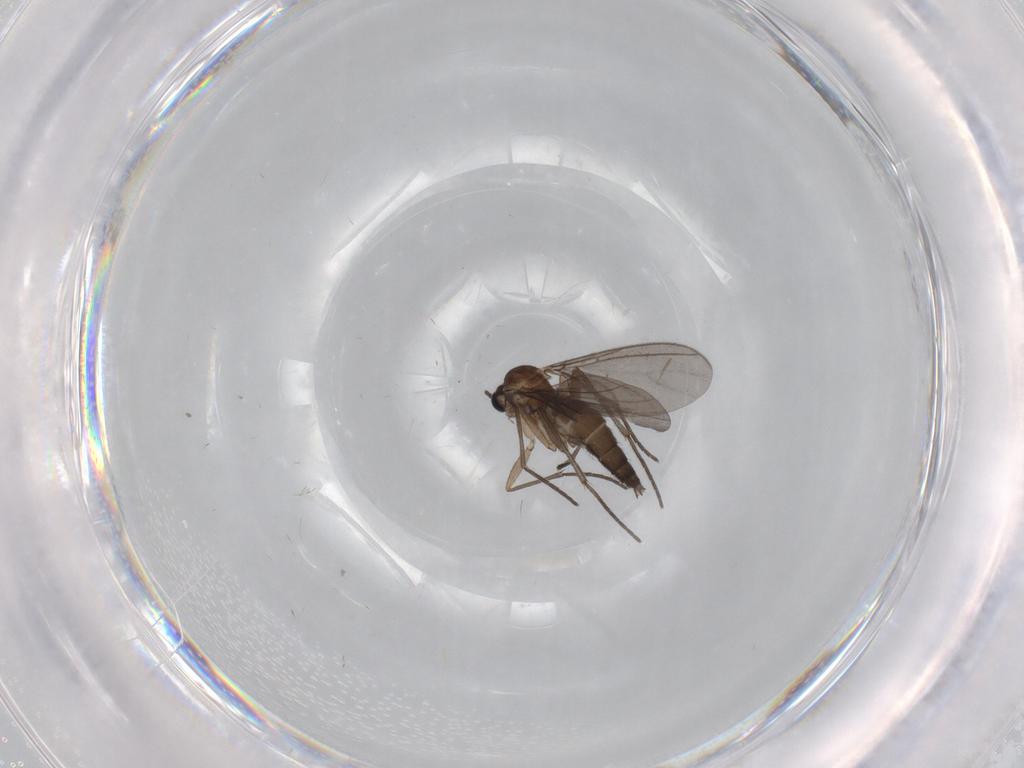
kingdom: Animalia
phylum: Arthropoda
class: Insecta
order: Diptera
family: Sciaridae
